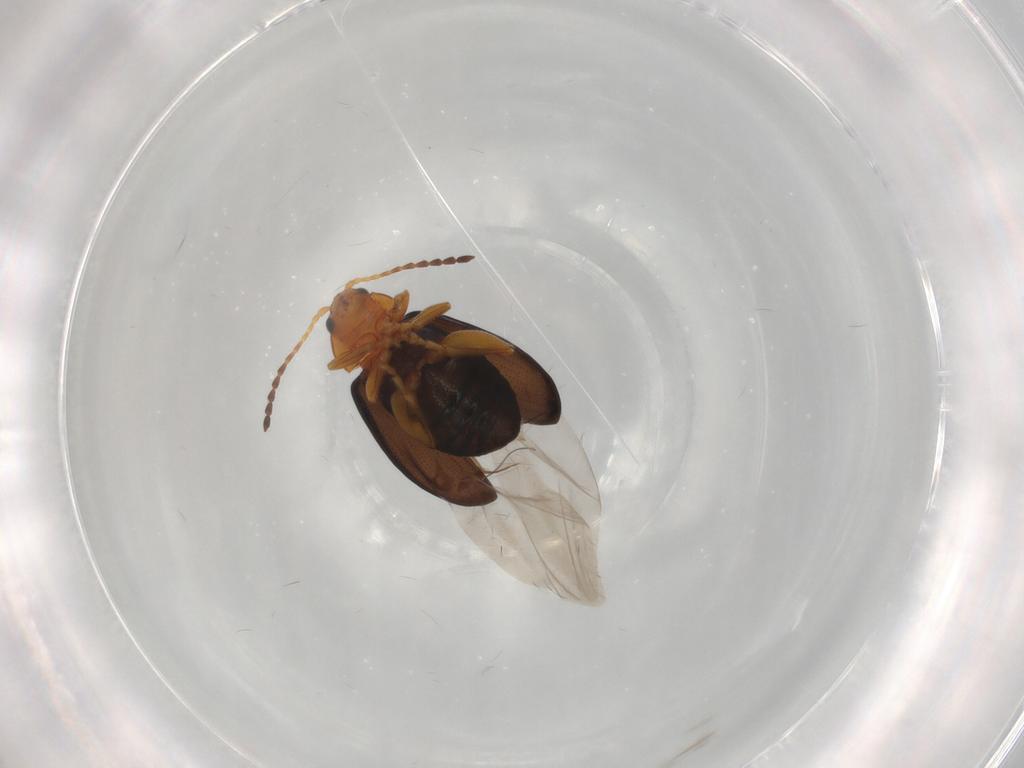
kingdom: Animalia
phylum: Arthropoda
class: Insecta
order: Coleoptera
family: Chrysomelidae
